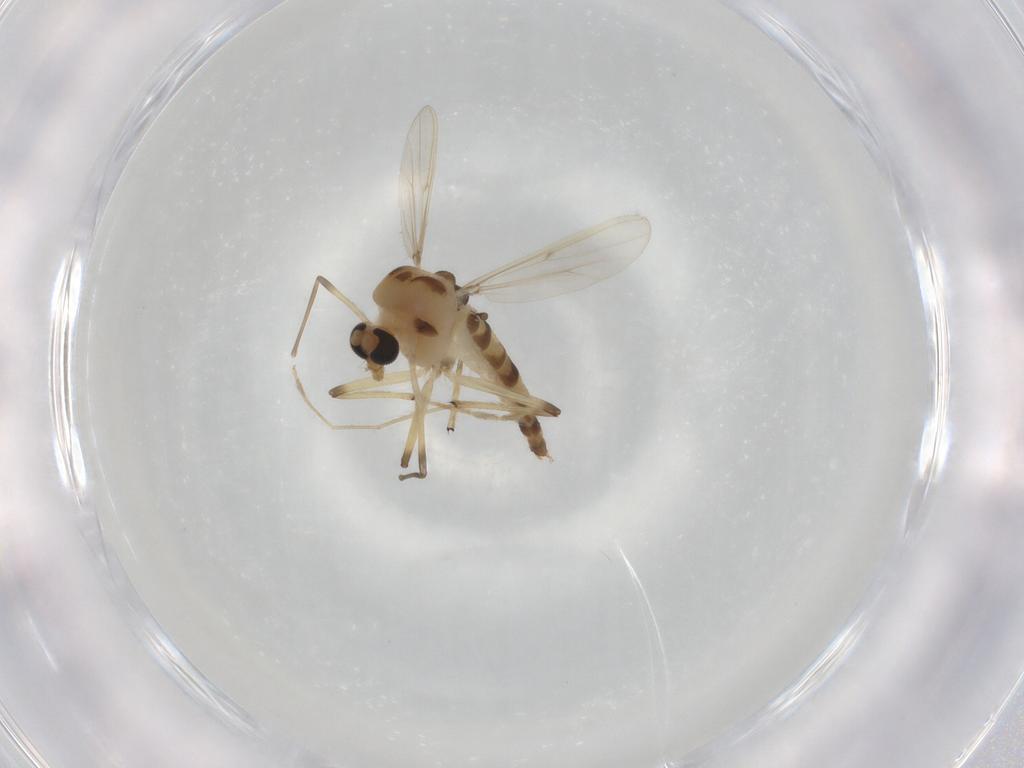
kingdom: Animalia
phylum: Arthropoda
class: Insecta
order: Diptera
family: Chironomidae
